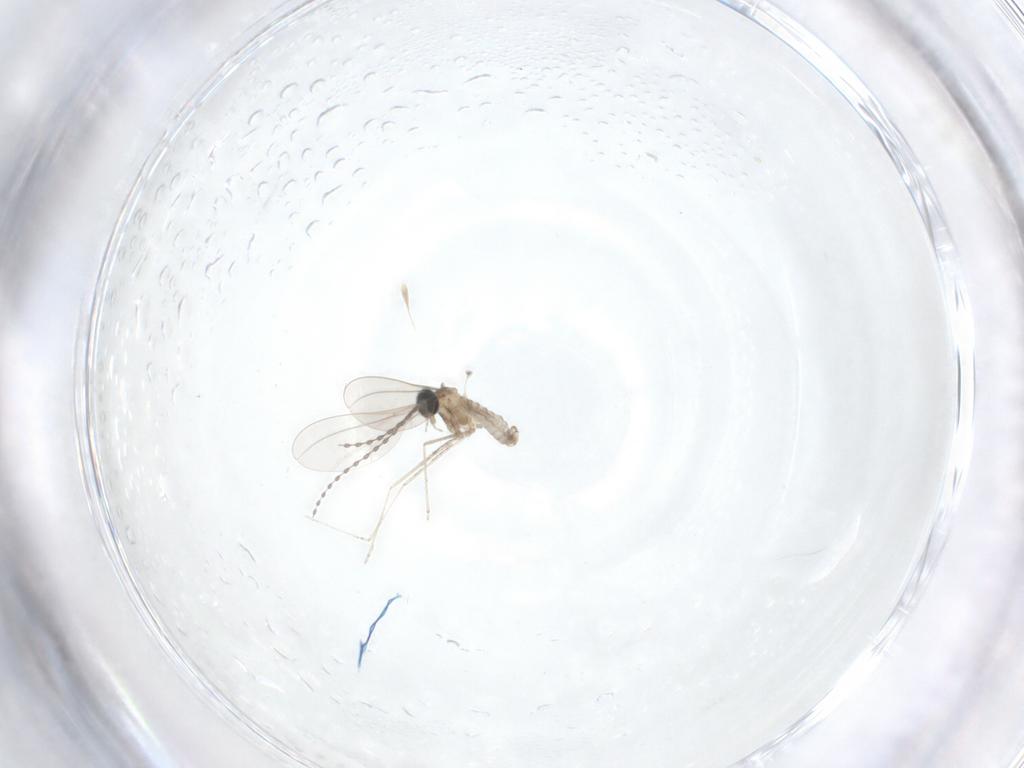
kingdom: Animalia
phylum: Arthropoda
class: Insecta
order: Diptera
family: Cecidomyiidae
